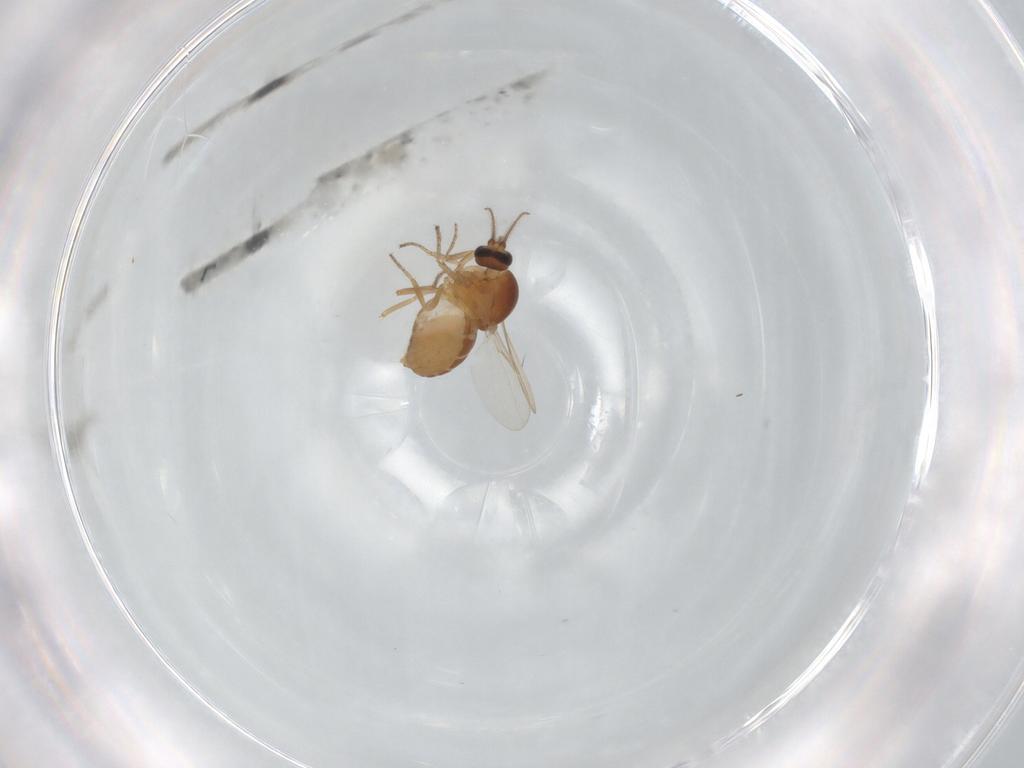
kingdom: Animalia
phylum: Arthropoda
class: Insecta
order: Diptera
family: Ceratopogonidae
